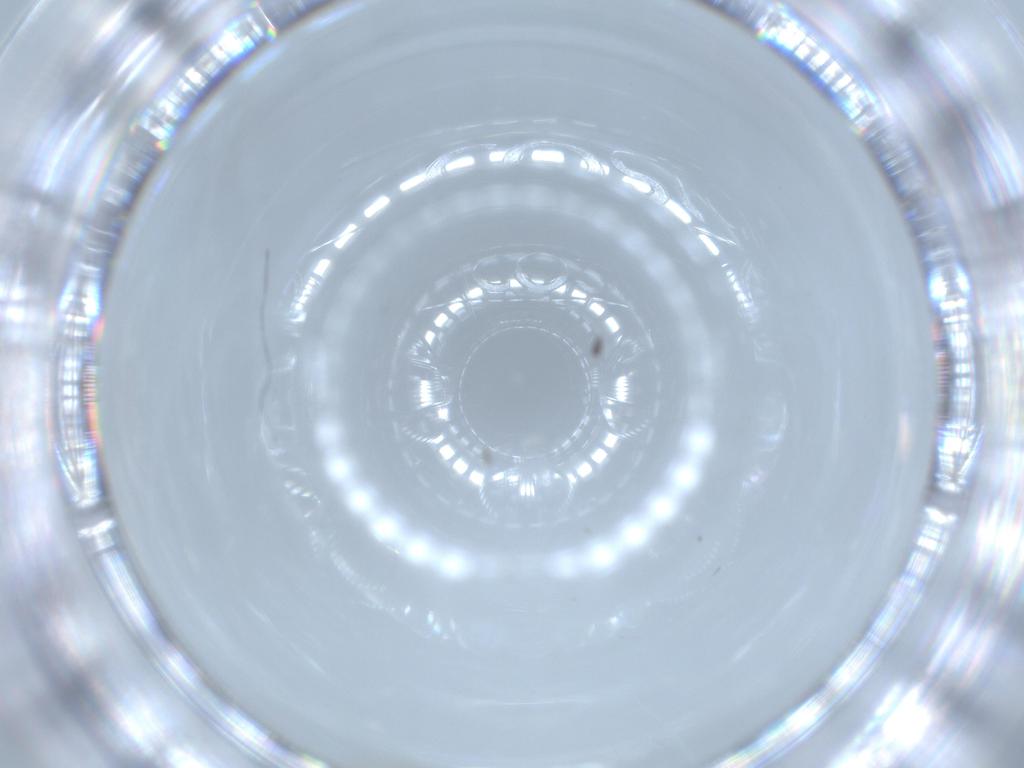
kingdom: Animalia
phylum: Arthropoda
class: Insecta
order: Hemiptera
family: Aleyrodidae
